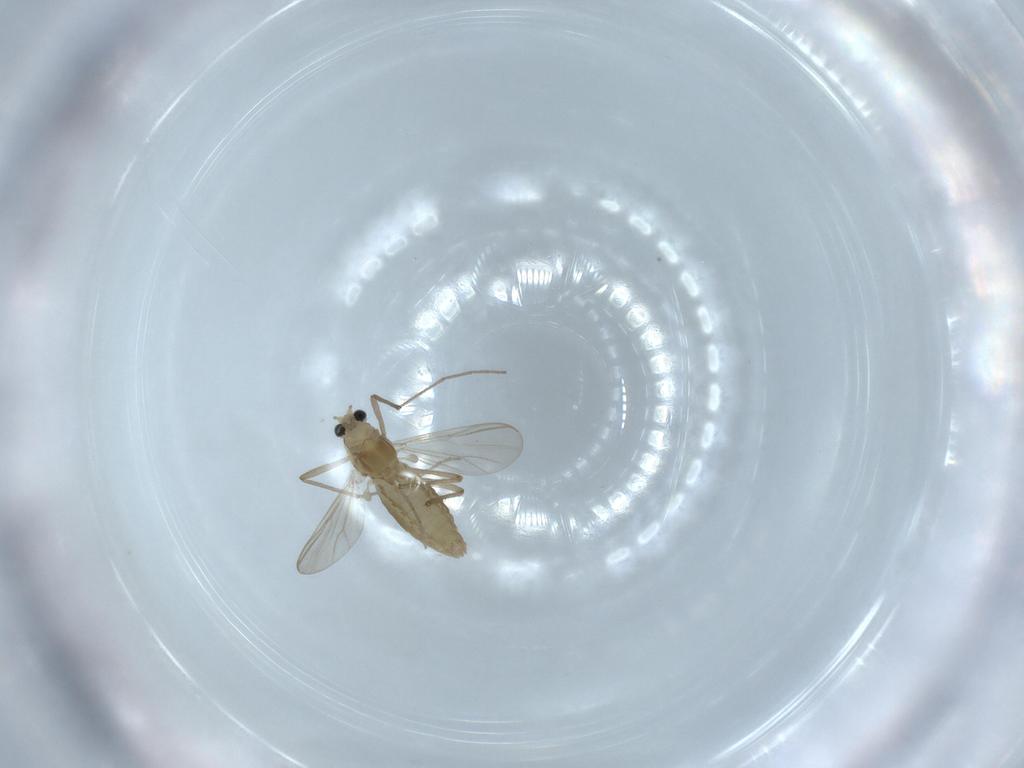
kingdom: Animalia
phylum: Arthropoda
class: Insecta
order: Diptera
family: Chironomidae
